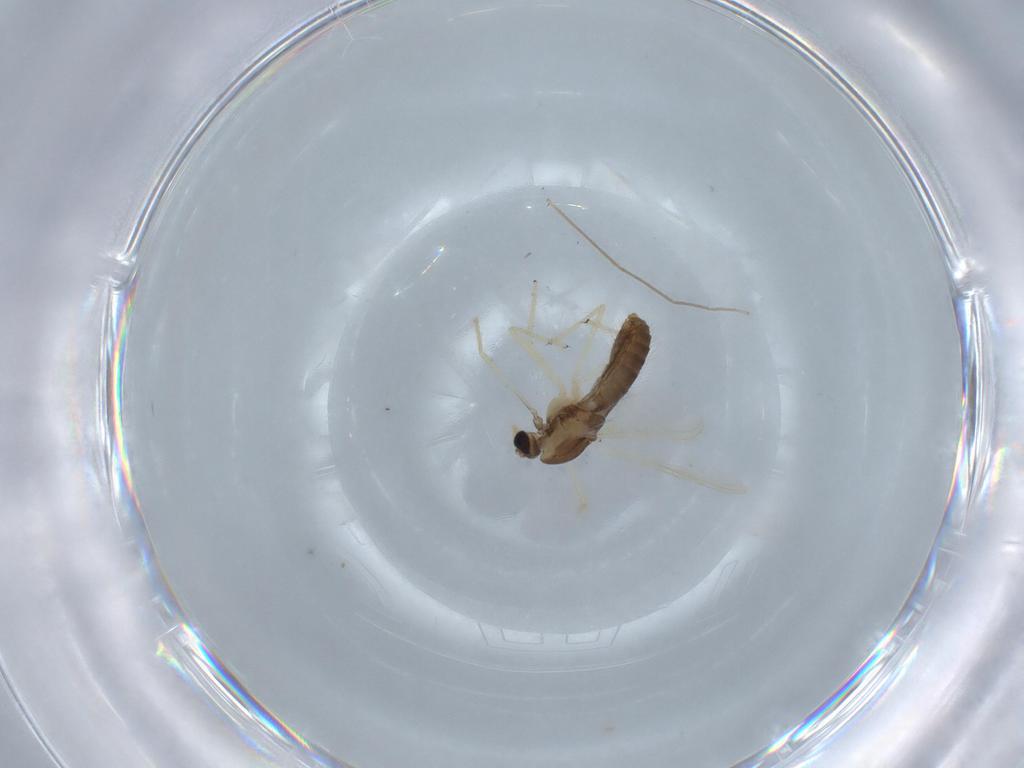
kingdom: Animalia
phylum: Arthropoda
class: Insecta
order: Diptera
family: Chironomidae
